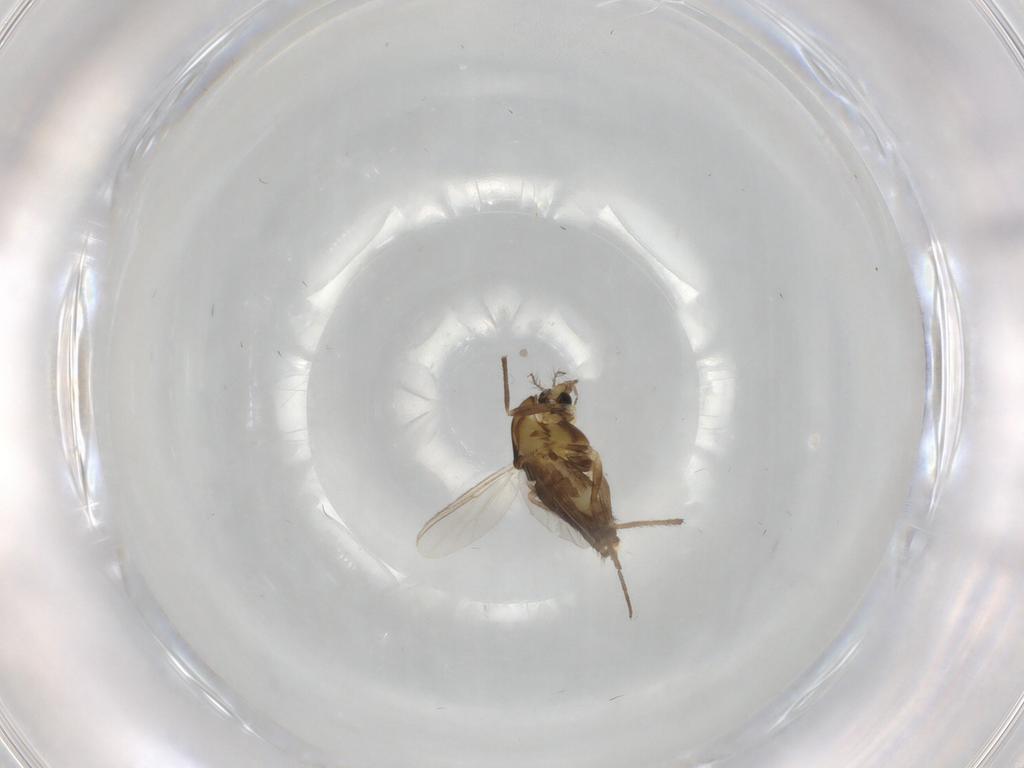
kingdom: Animalia
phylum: Arthropoda
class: Insecta
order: Diptera
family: Chironomidae
